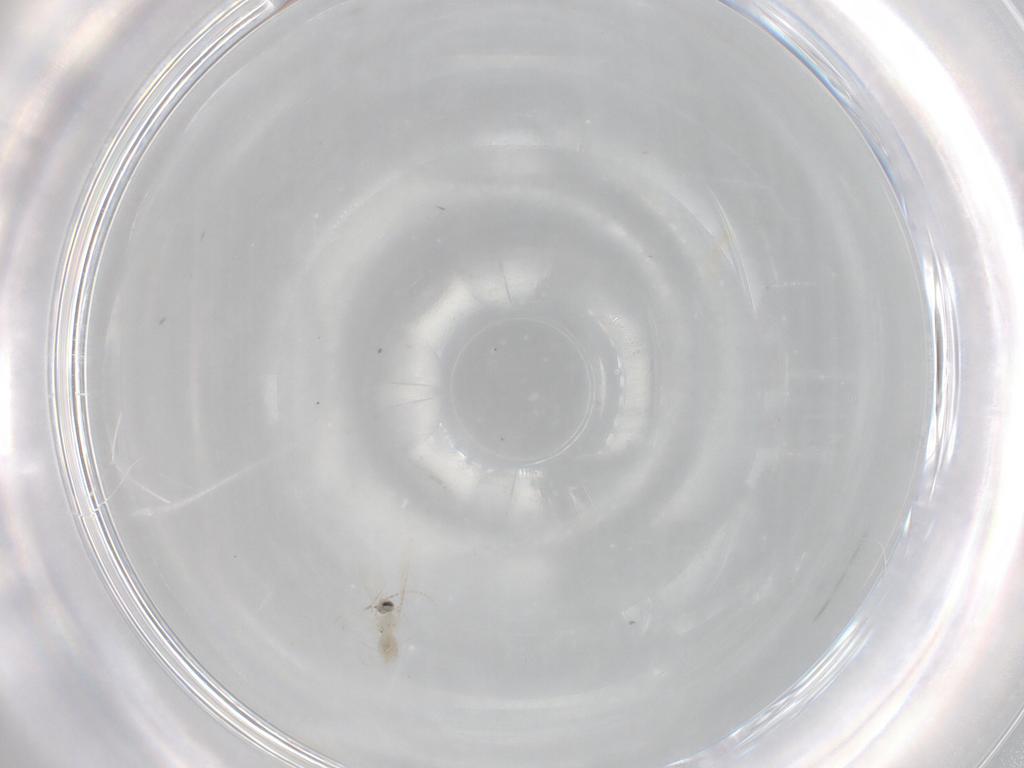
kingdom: Animalia
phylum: Arthropoda
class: Insecta
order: Diptera
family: Cecidomyiidae
